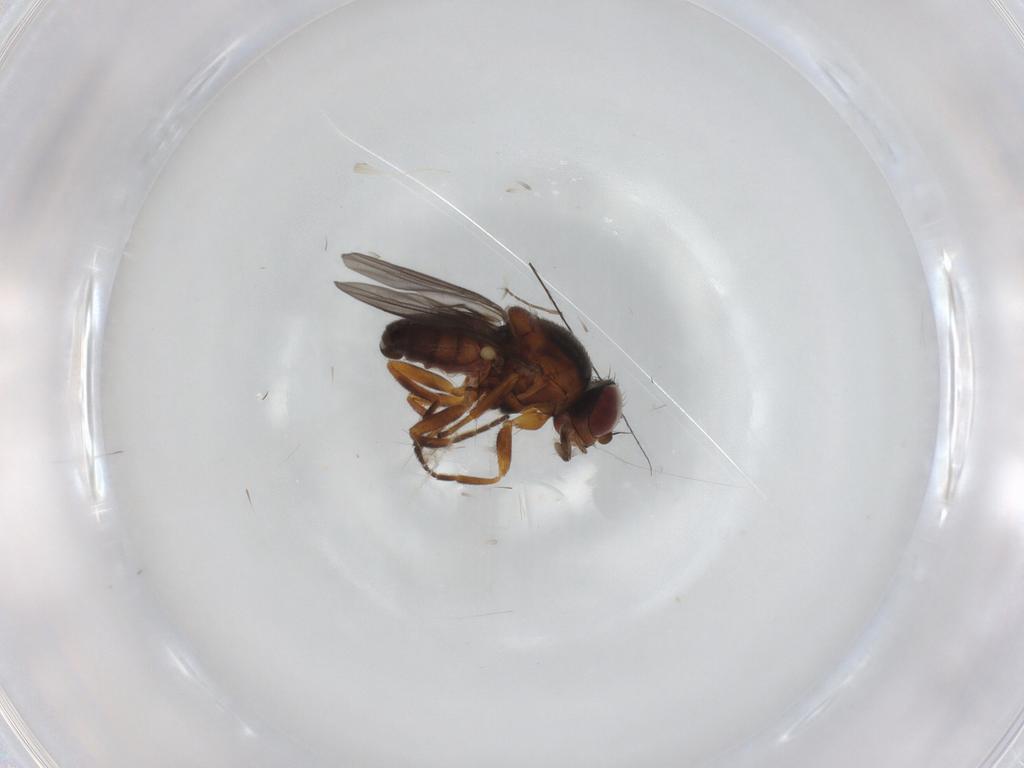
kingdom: Animalia
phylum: Arthropoda
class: Insecta
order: Diptera
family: Chloropidae
